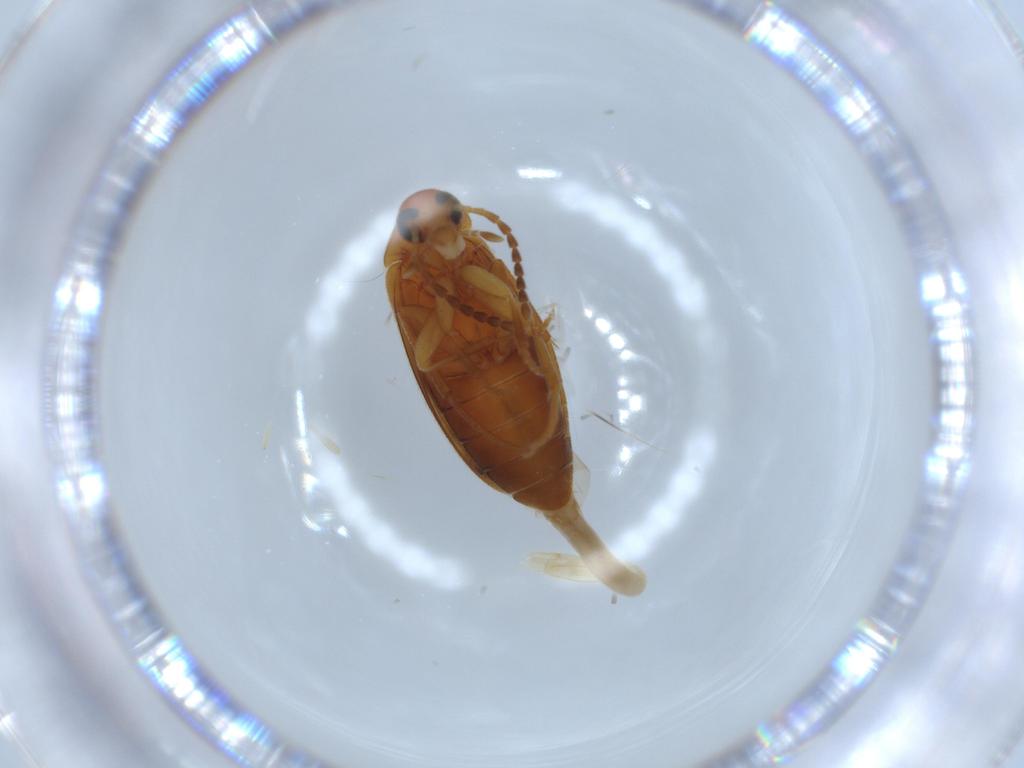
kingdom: Animalia
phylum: Arthropoda
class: Insecta
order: Coleoptera
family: Scraptiidae
